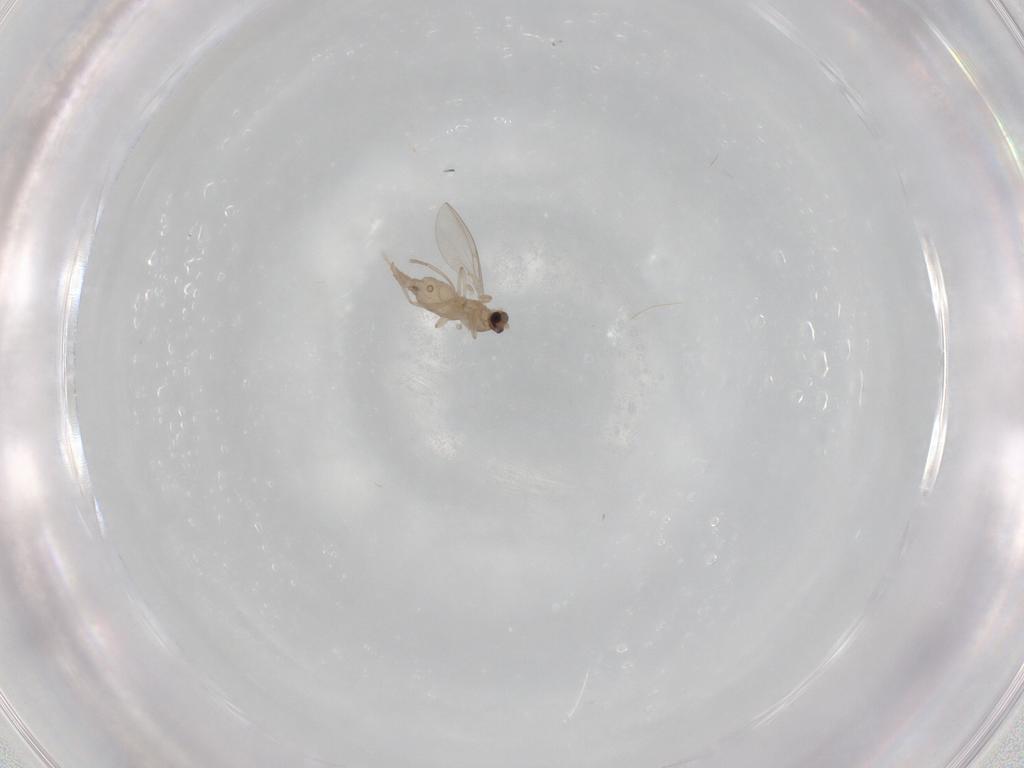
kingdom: Animalia
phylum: Arthropoda
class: Insecta
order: Diptera
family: Cecidomyiidae
